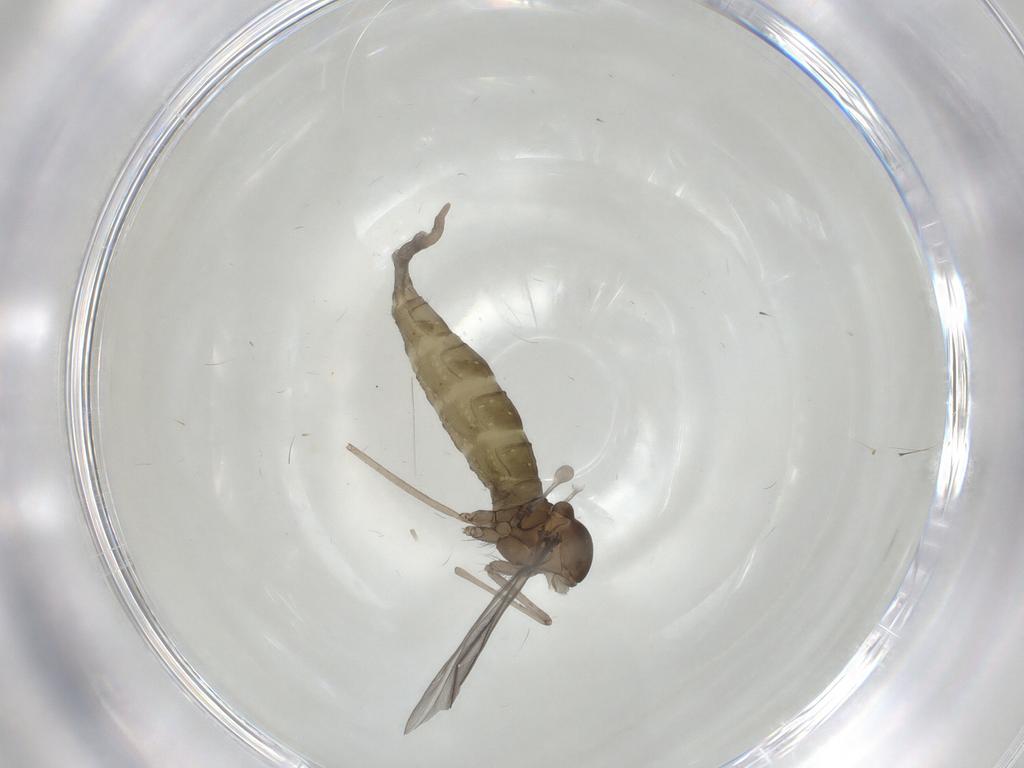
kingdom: Animalia
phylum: Arthropoda
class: Insecta
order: Diptera
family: Cecidomyiidae
